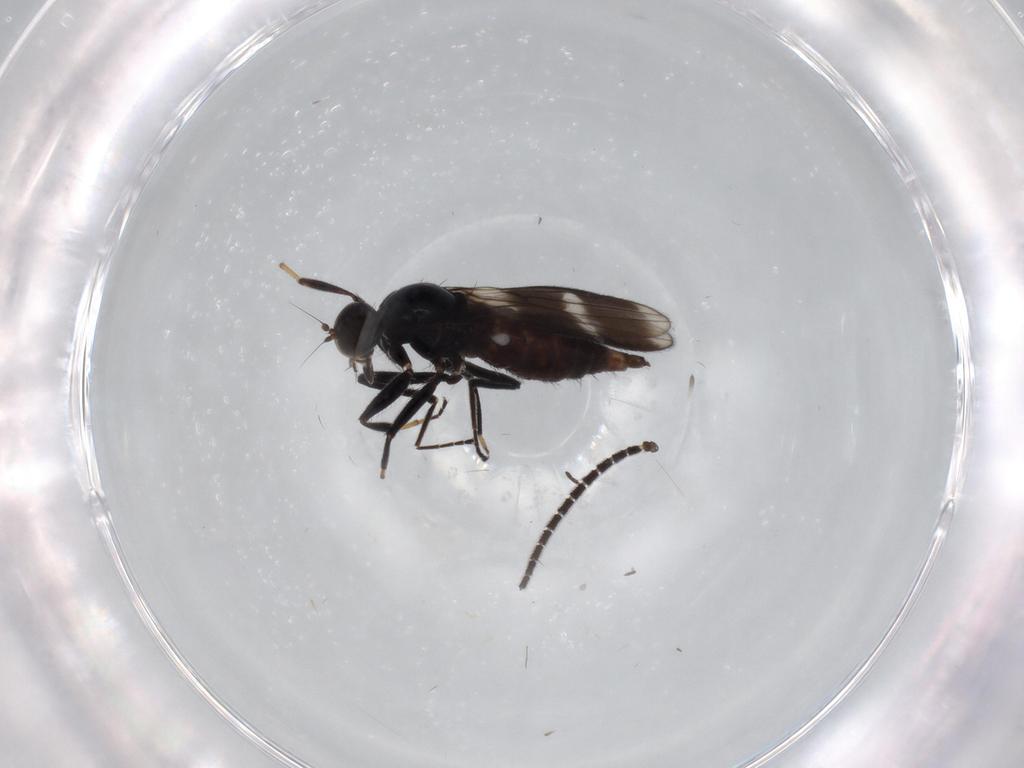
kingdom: Animalia
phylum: Arthropoda
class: Insecta
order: Diptera
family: Hybotidae
